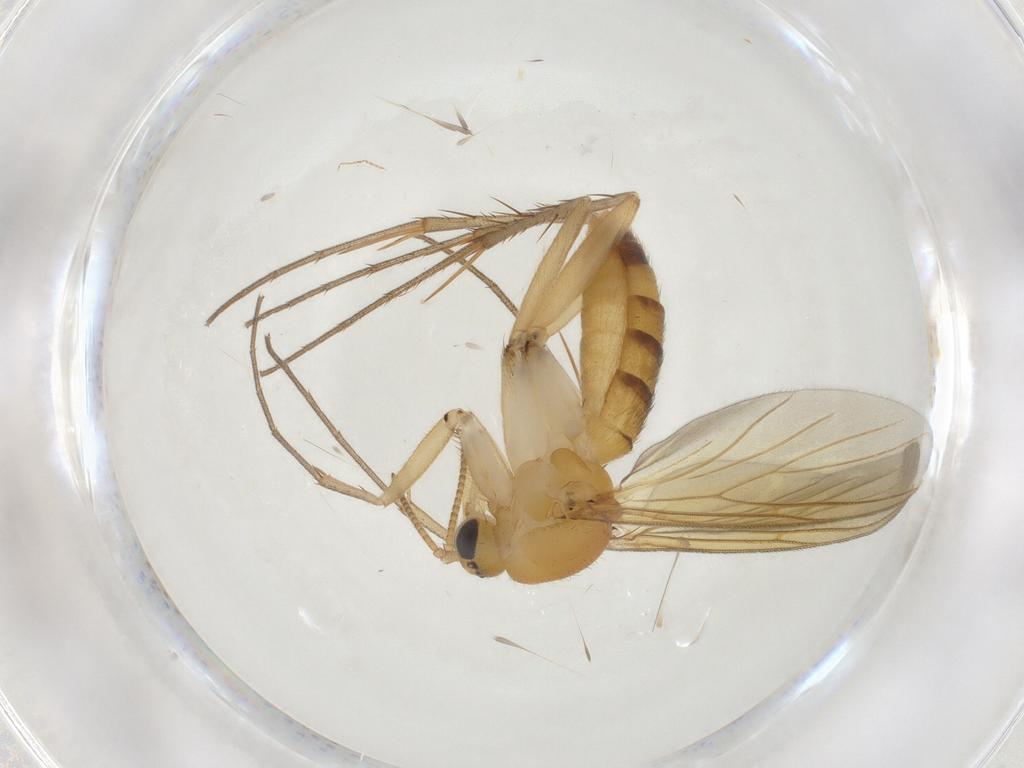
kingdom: Animalia
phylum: Arthropoda
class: Insecta
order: Diptera
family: Mycetophilidae
